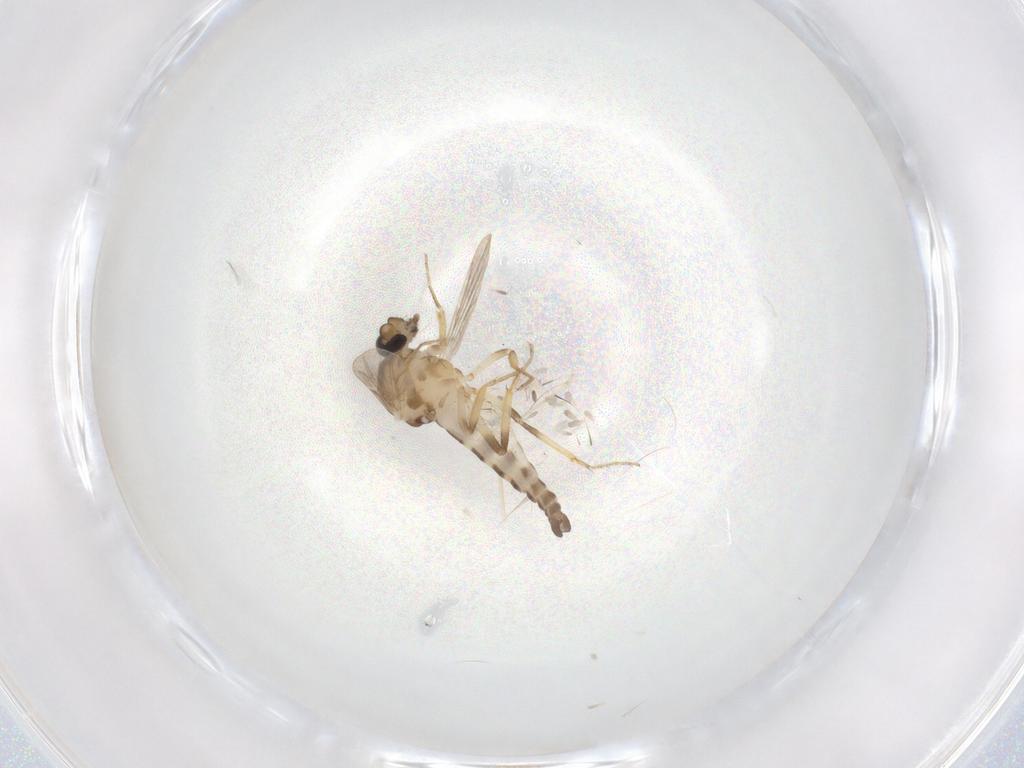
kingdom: Animalia
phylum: Arthropoda
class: Insecta
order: Diptera
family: Ceratopogonidae
